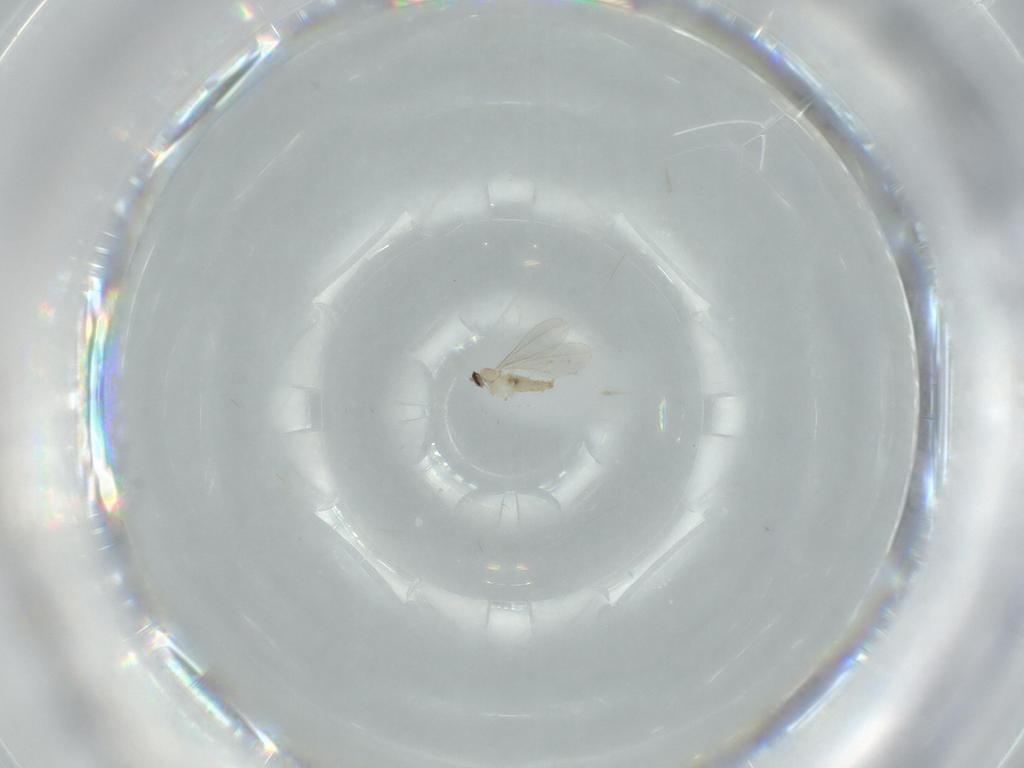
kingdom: Animalia
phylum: Arthropoda
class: Insecta
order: Diptera
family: Cecidomyiidae
